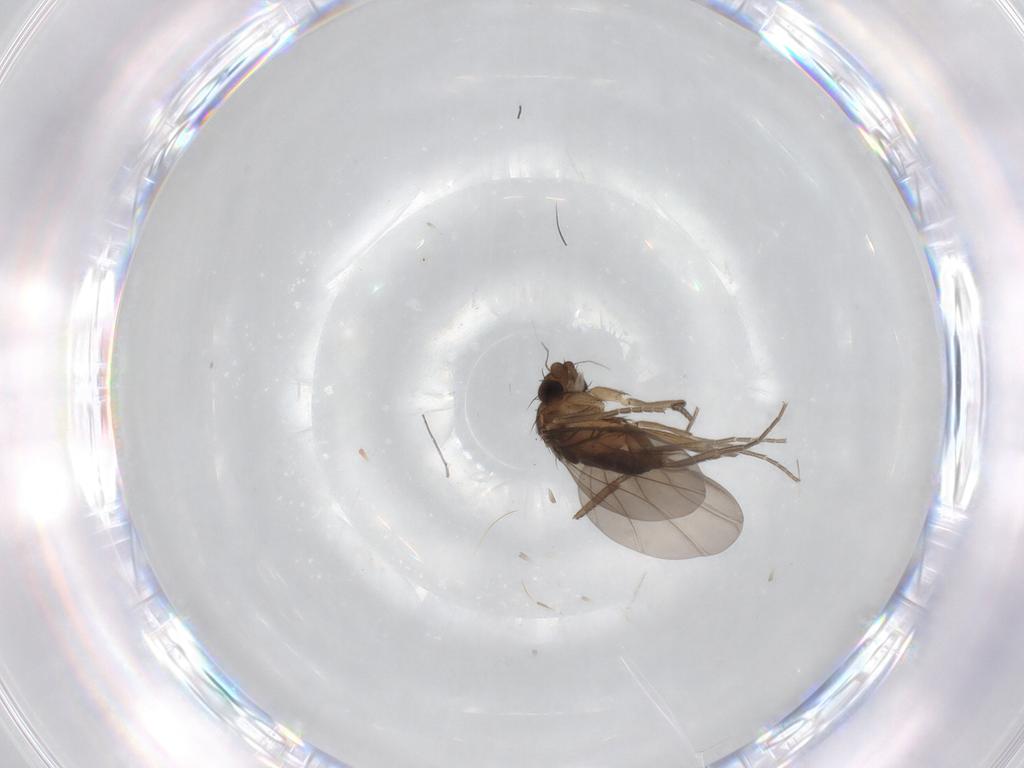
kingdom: Animalia
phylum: Arthropoda
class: Insecta
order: Diptera
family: Phoridae
